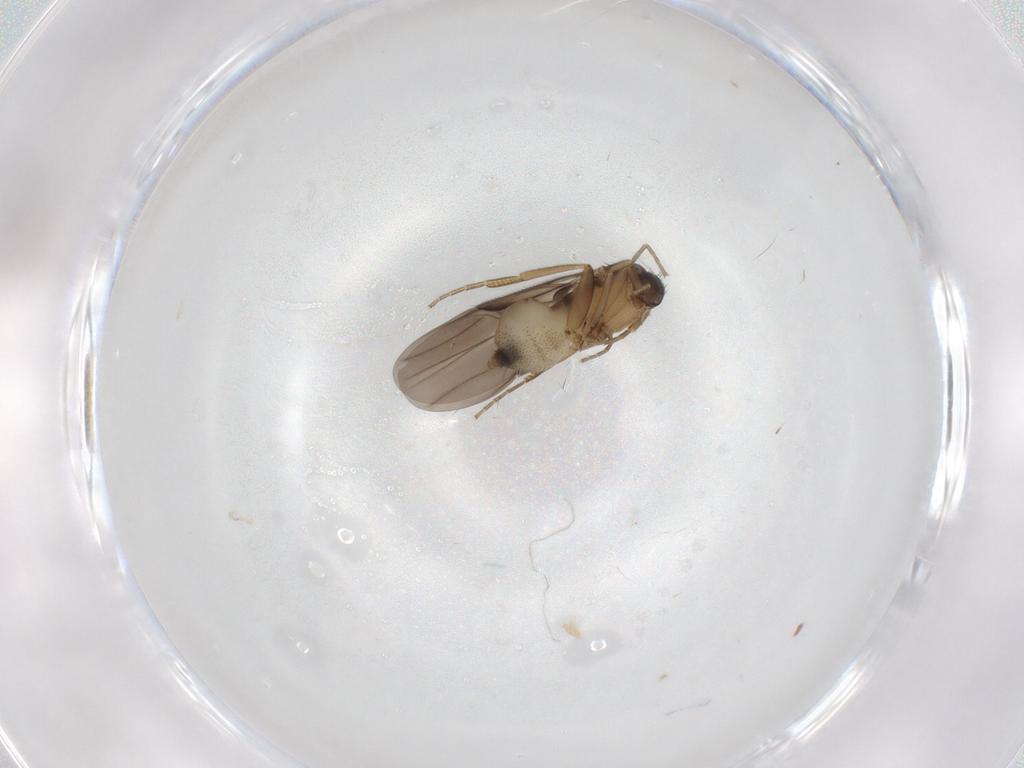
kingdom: Animalia
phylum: Arthropoda
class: Insecta
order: Diptera
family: Phoridae
